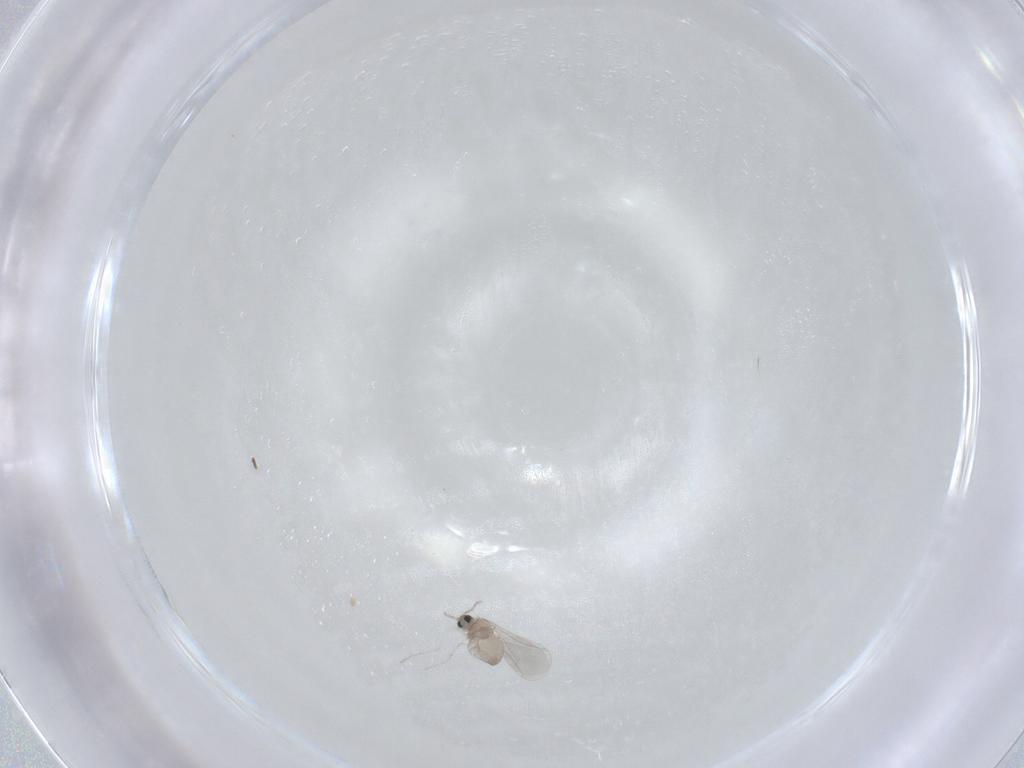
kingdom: Animalia
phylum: Arthropoda
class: Insecta
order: Diptera
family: Cecidomyiidae
